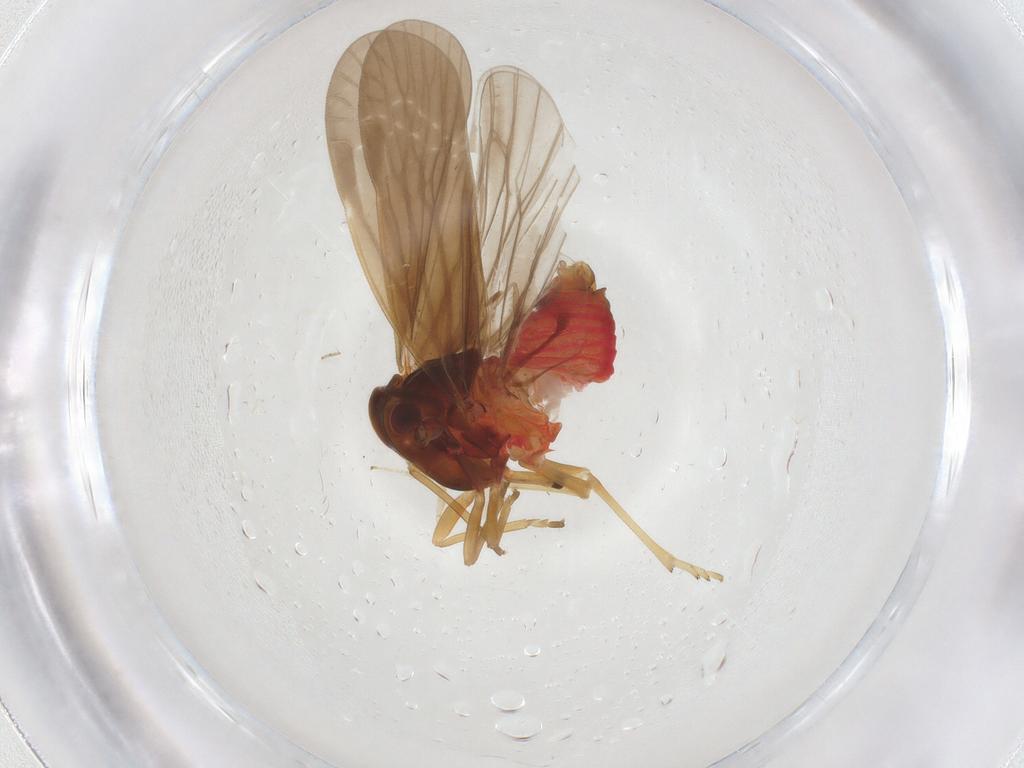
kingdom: Animalia
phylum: Arthropoda
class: Insecta
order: Hemiptera
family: Derbidae
